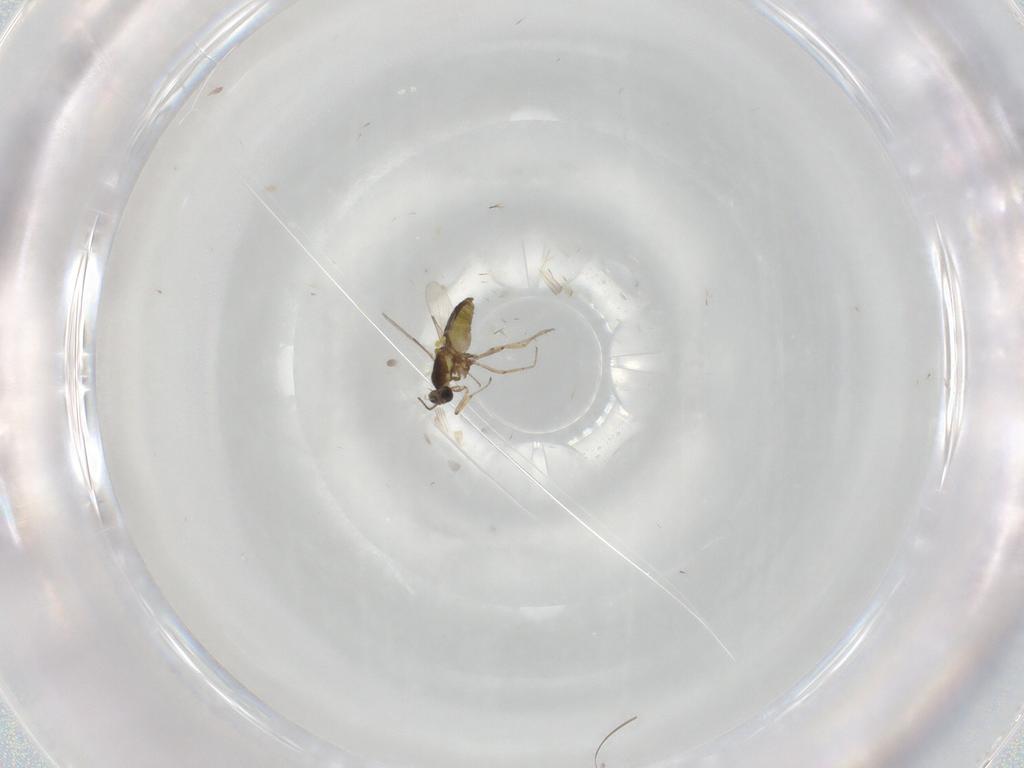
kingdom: Animalia
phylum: Arthropoda
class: Insecta
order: Diptera
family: Ceratopogonidae
